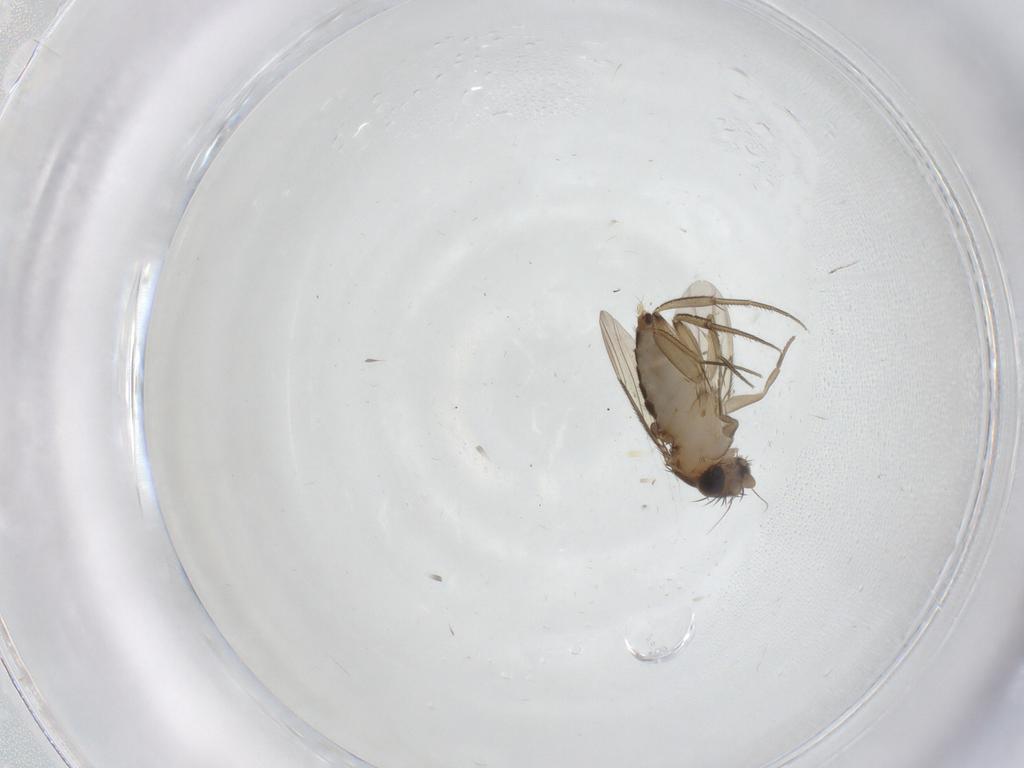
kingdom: Animalia
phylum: Arthropoda
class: Insecta
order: Diptera
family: Phoridae
